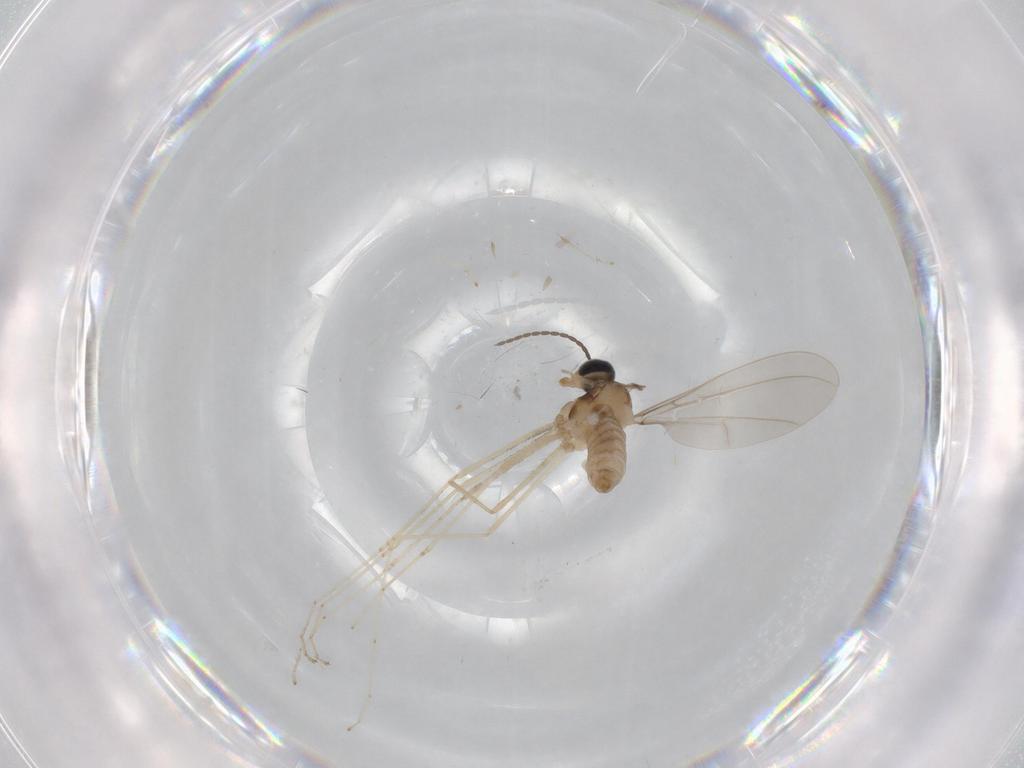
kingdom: Animalia
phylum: Arthropoda
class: Insecta
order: Diptera
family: Cecidomyiidae
